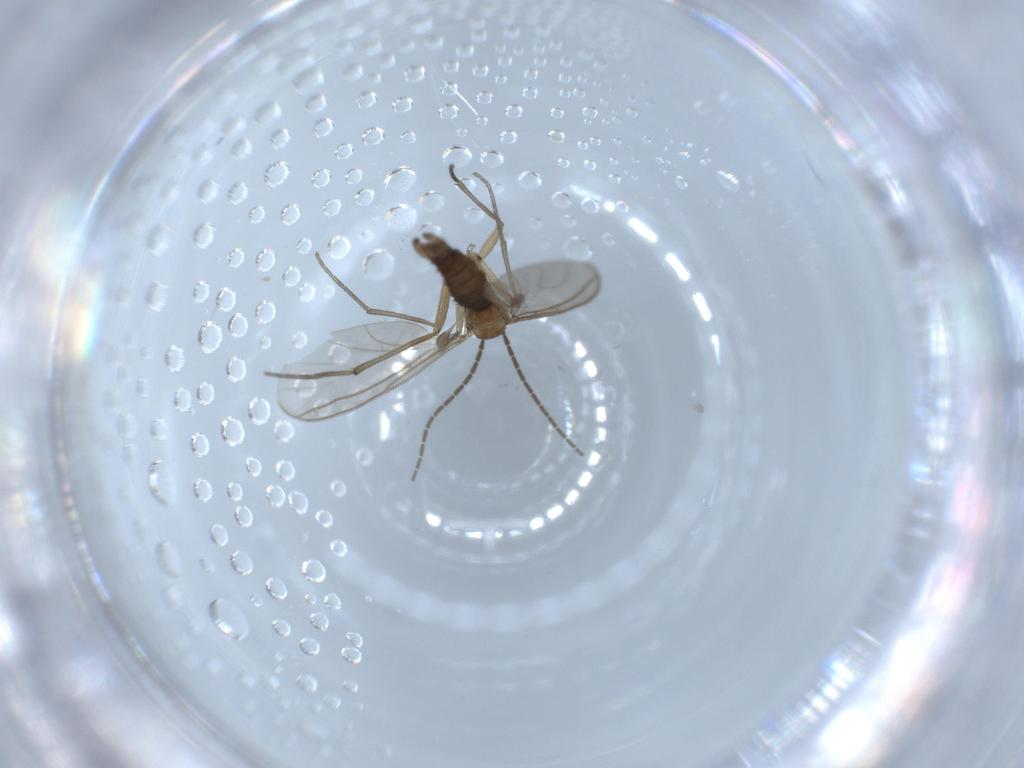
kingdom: Animalia
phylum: Arthropoda
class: Insecta
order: Diptera
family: Sciaridae
